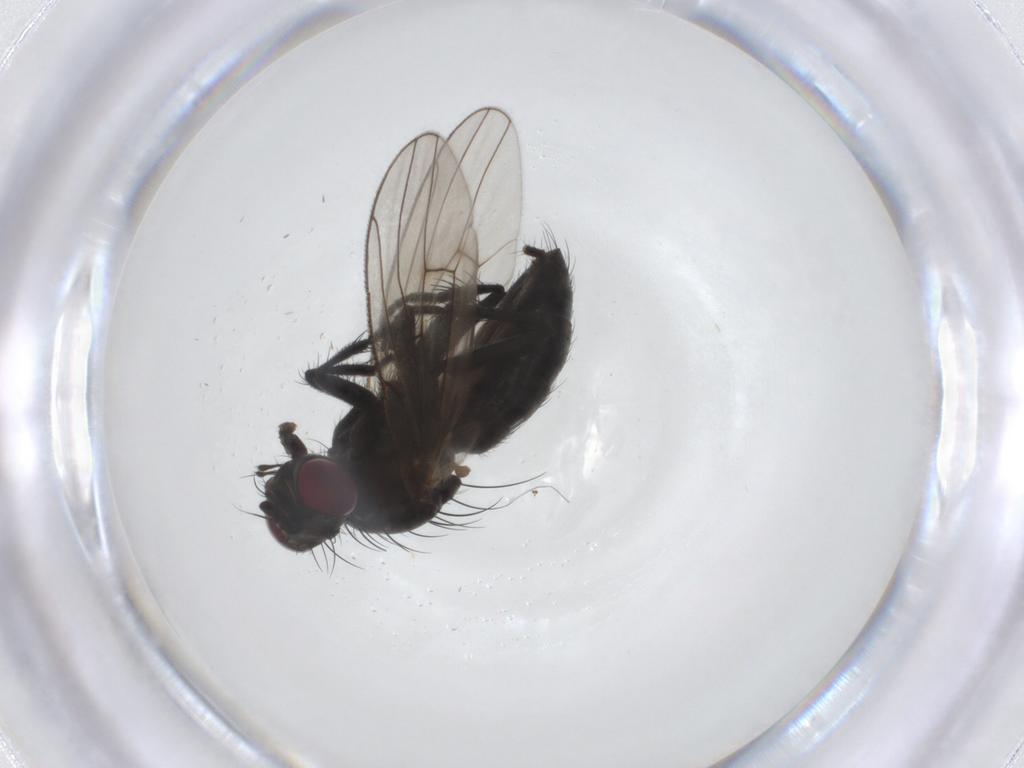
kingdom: Animalia
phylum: Arthropoda
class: Insecta
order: Diptera
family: Muscidae
